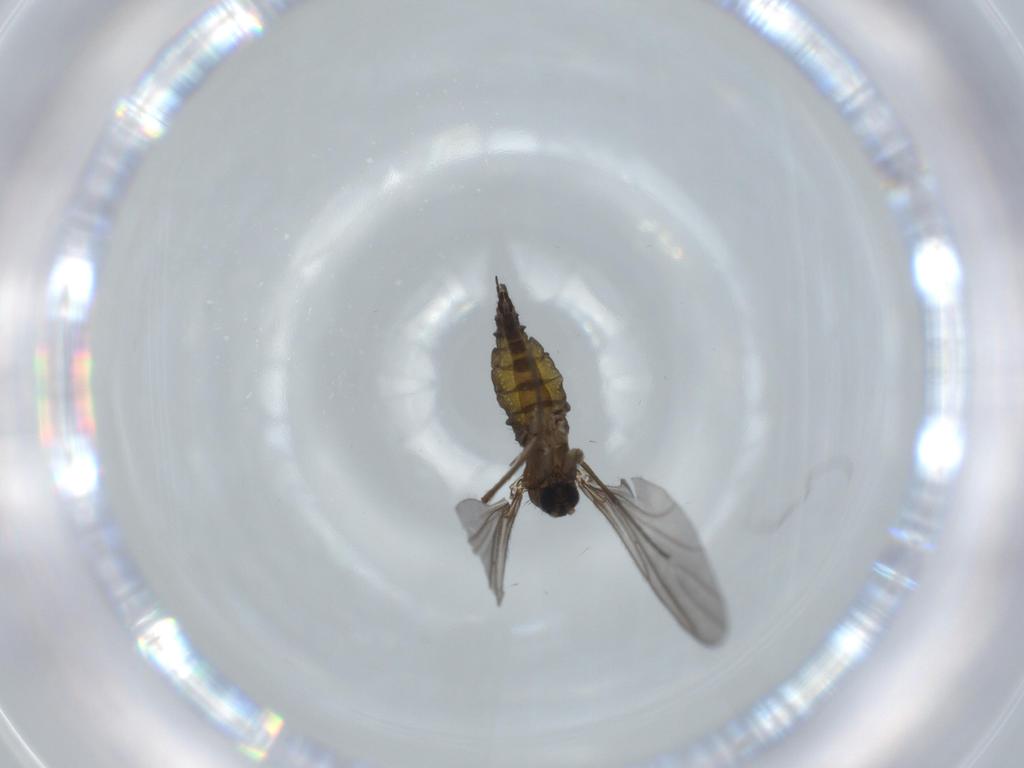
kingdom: Animalia
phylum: Arthropoda
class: Insecta
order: Diptera
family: Sciaridae
